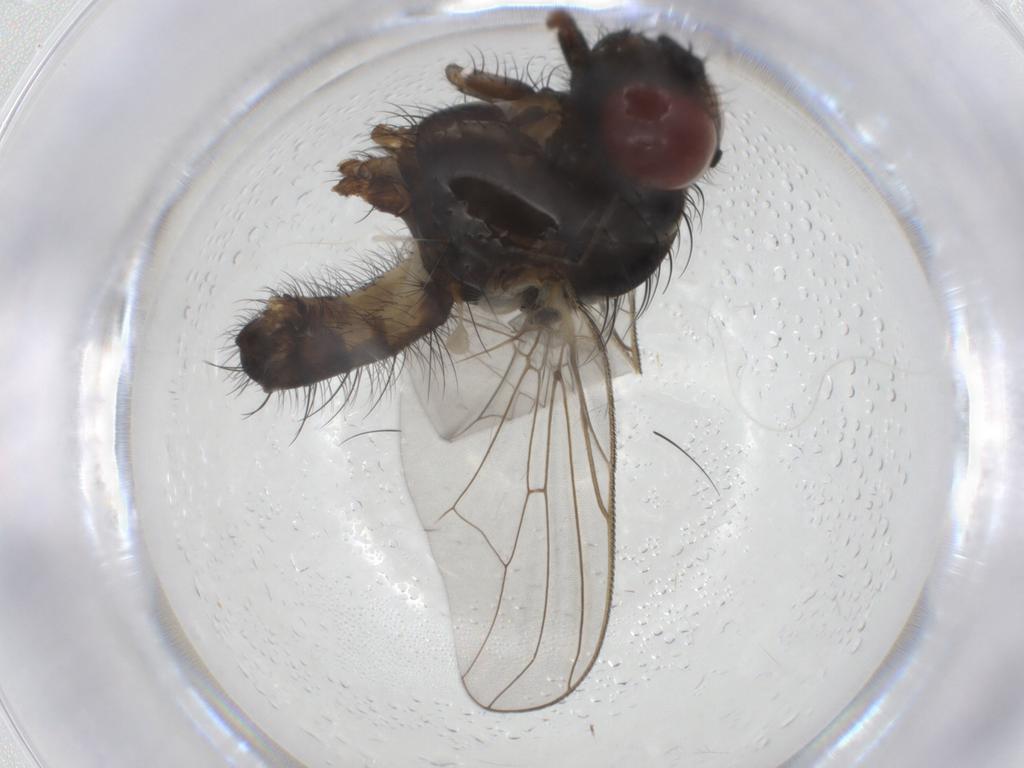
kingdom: Animalia
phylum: Arthropoda
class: Insecta
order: Diptera
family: Anthomyiidae
